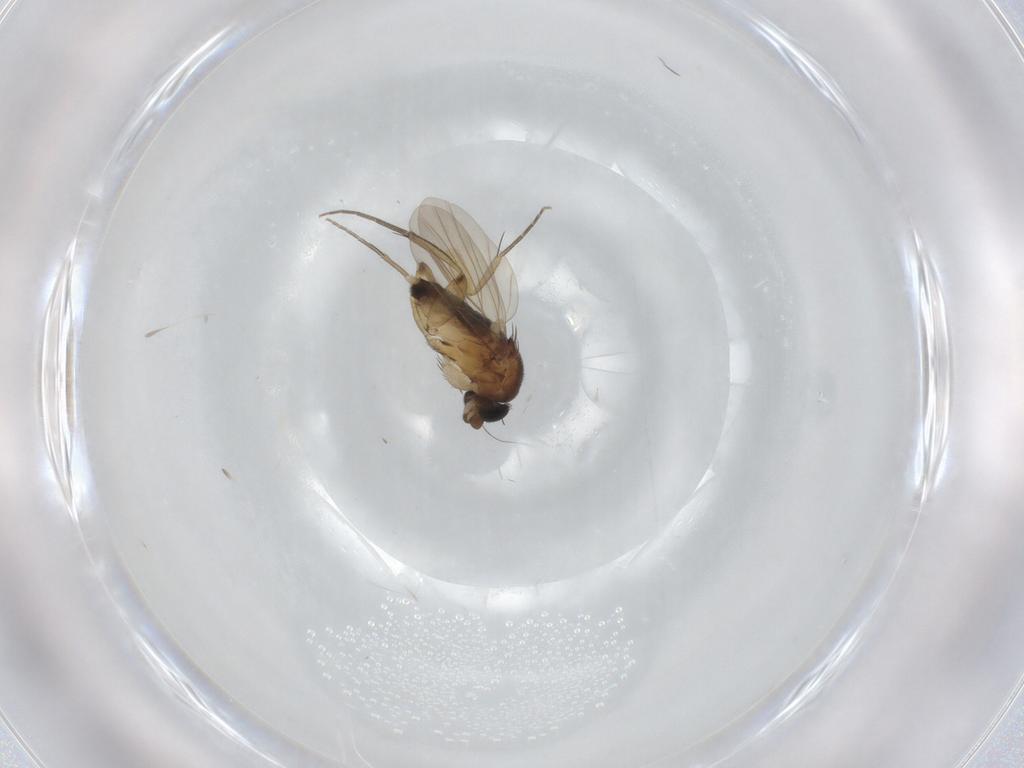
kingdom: Animalia
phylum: Arthropoda
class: Insecta
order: Diptera
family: Sciaridae
